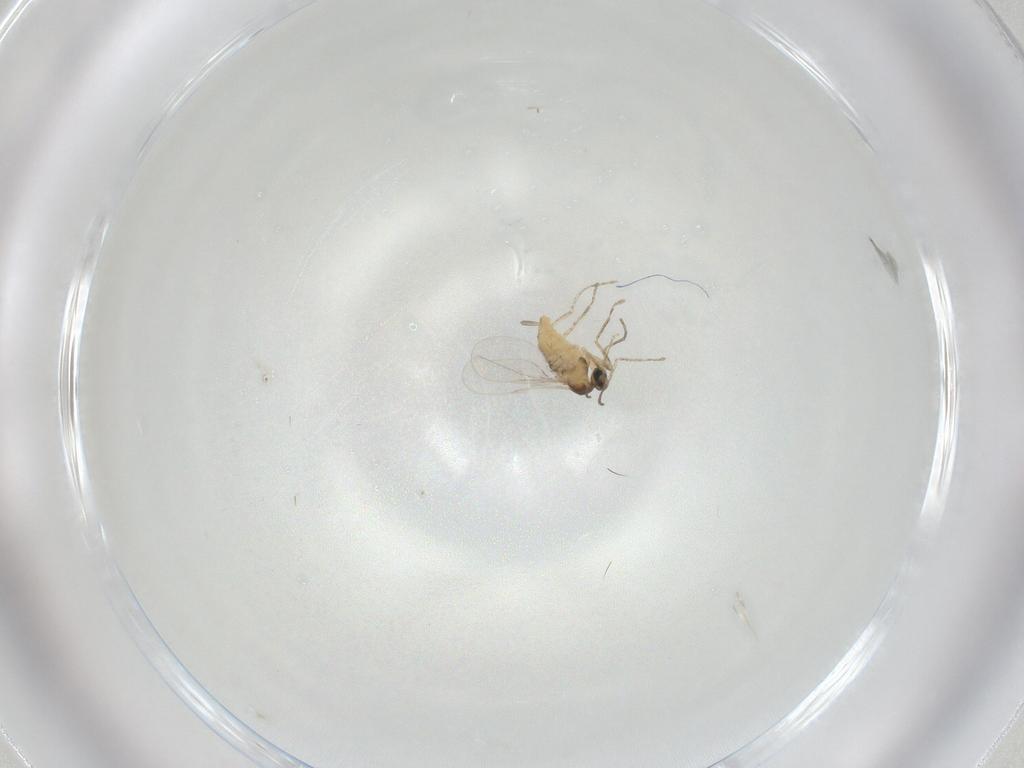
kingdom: Animalia
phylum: Arthropoda
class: Insecta
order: Diptera
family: Cecidomyiidae
